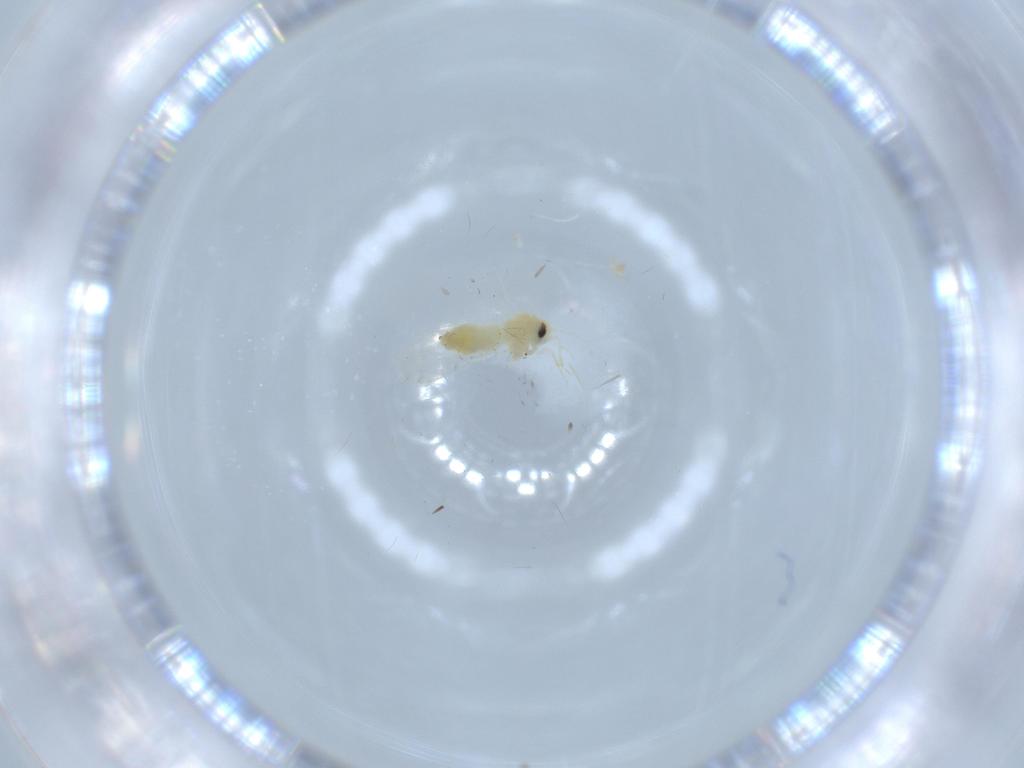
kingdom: Animalia
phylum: Arthropoda
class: Insecta
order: Hemiptera
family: Aleyrodidae
